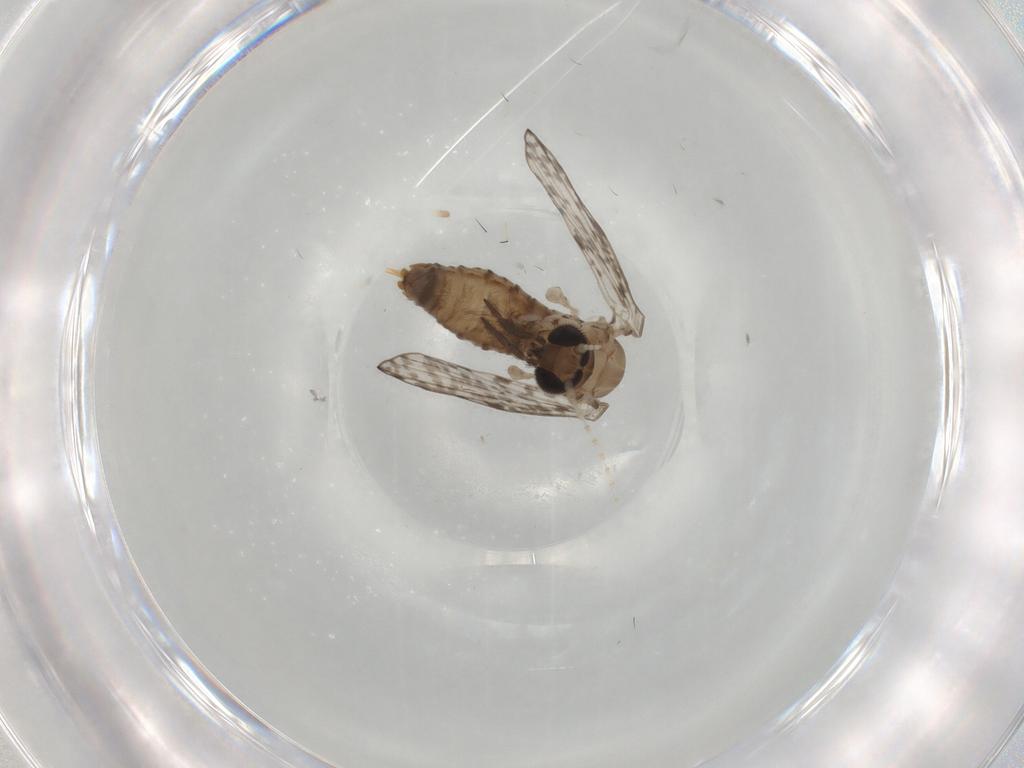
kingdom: Animalia
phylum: Arthropoda
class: Insecta
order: Diptera
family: Psychodidae
